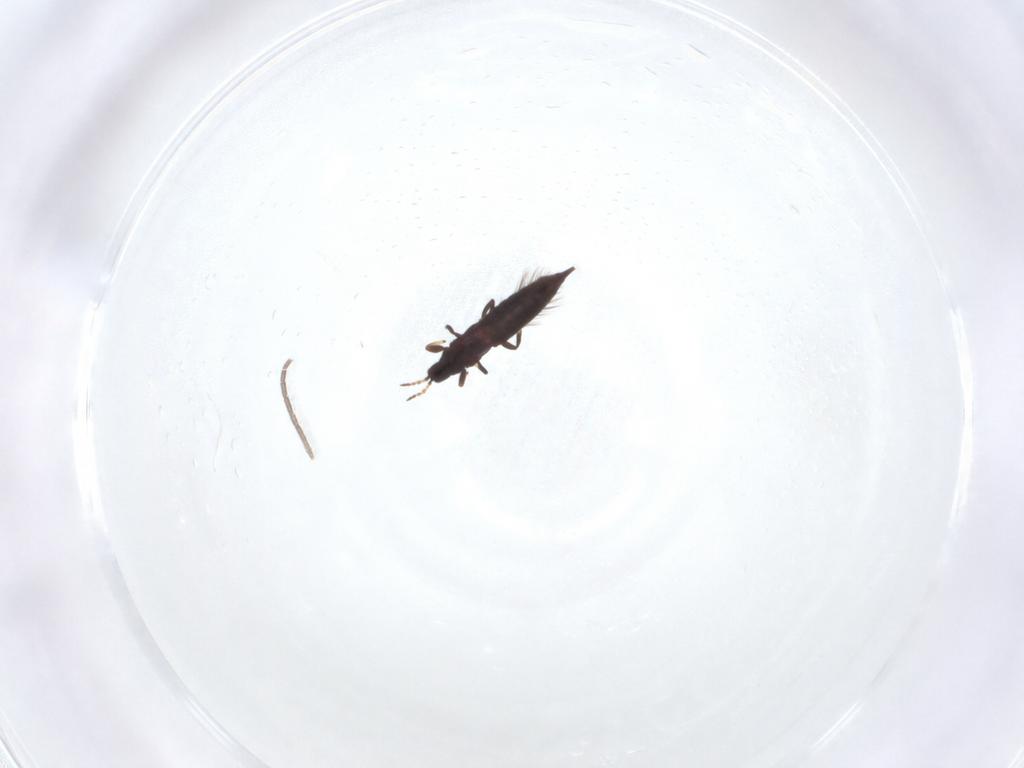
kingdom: Animalia
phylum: Arthropoda
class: Insecta
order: Thysanoptera
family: Phlaeothripidae
